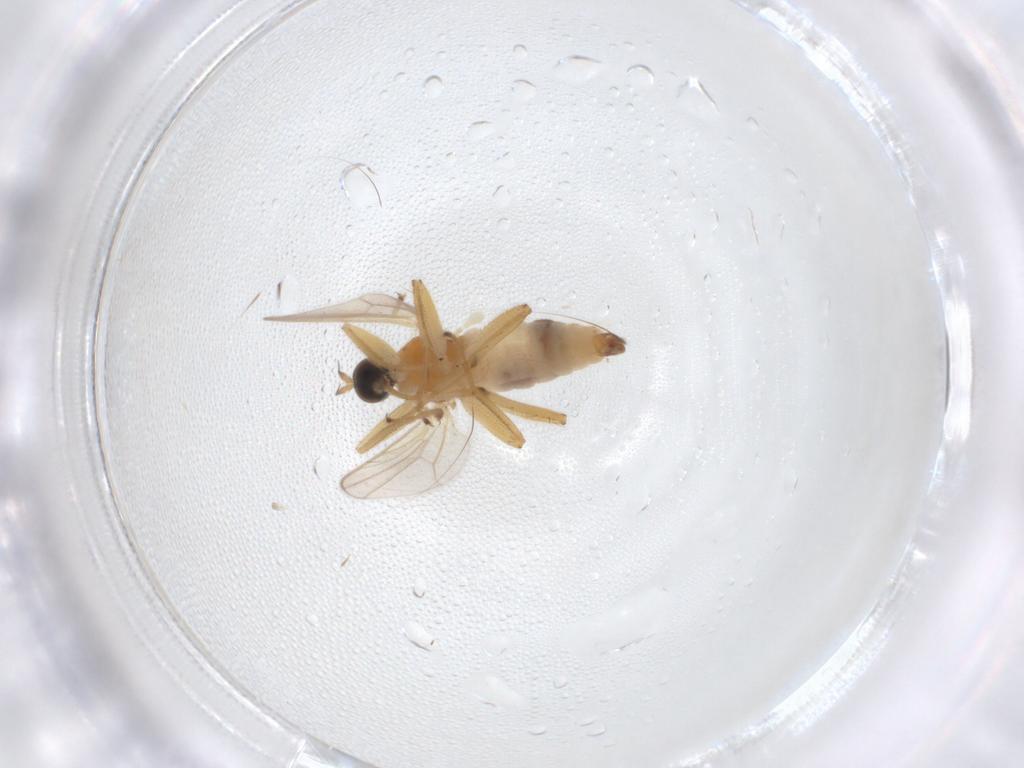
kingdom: Animalia
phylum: Arthropoda
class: Insecta
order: Diptera
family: Hybotidae
